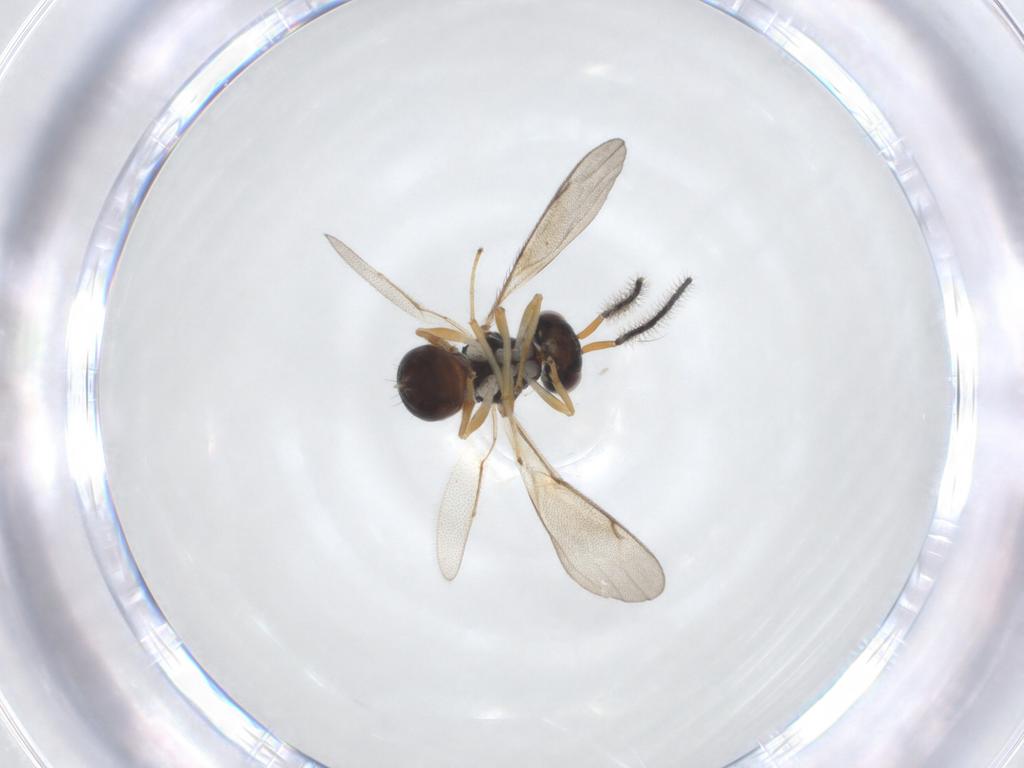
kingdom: Animalia
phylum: Arthropoda
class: Insecta
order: Hymenoptera
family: Diparidae
